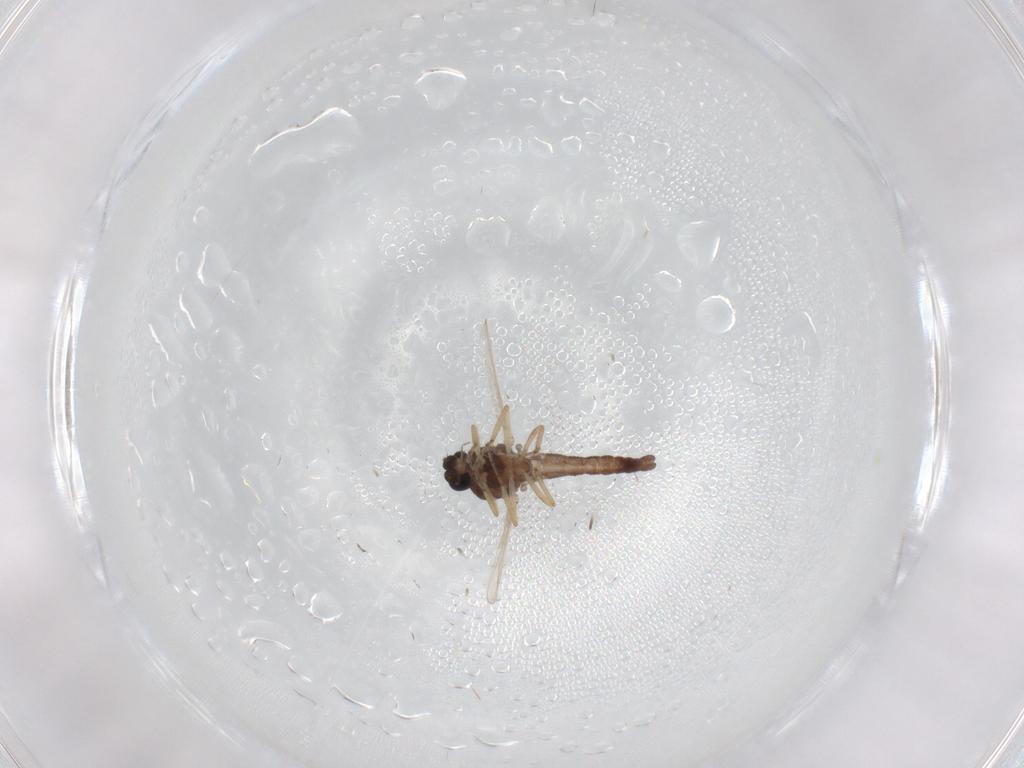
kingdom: Animalia
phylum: Arthropoda
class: Insecta
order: Diptera
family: Ceratopogonidae
